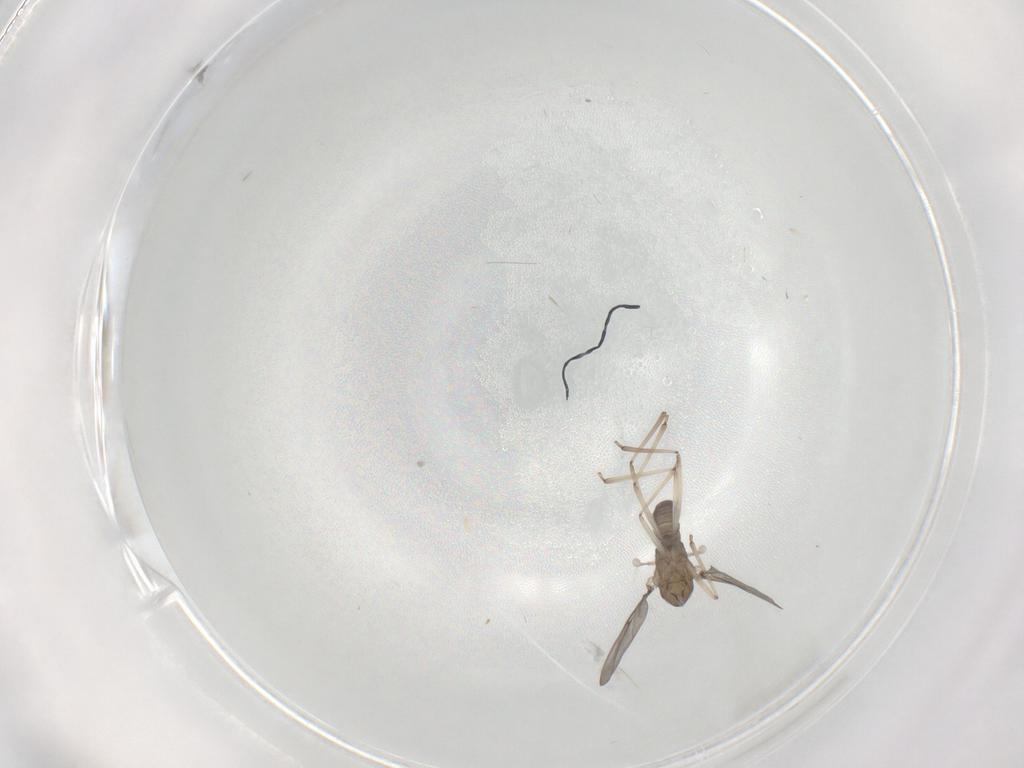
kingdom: Animalia
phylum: Arthropoda
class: Insecta
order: Diptera
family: Cecidomyiidae
